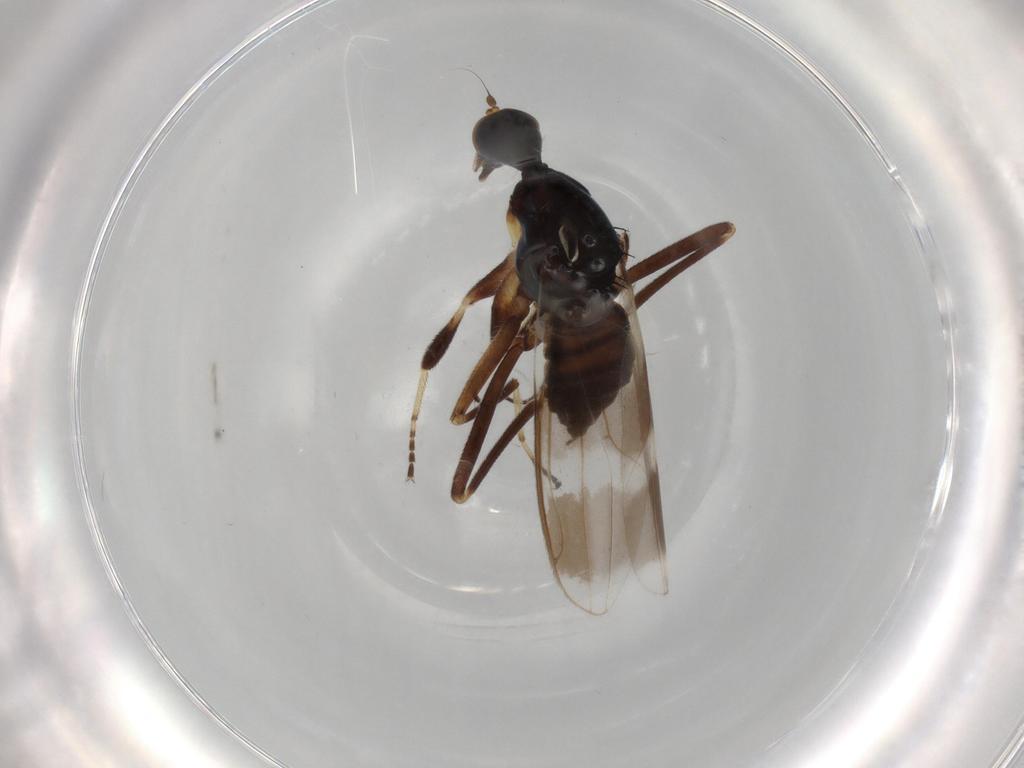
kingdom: Animalia
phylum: Arthropoda
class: Insecta
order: Diptera
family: Hybotidae
